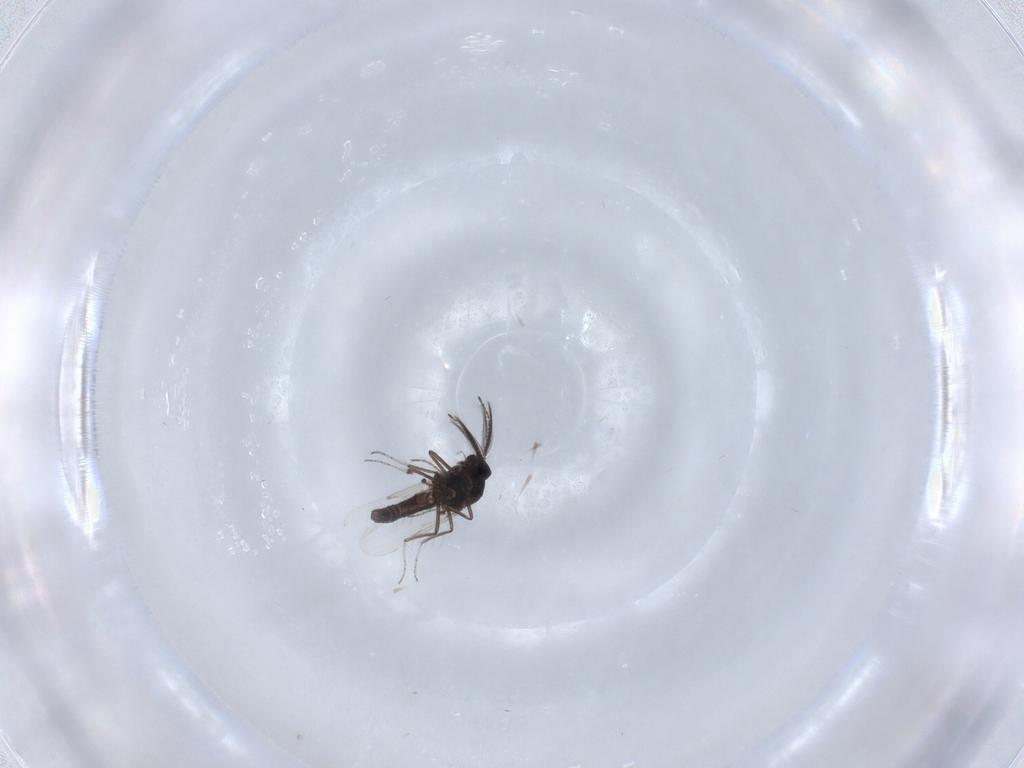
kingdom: Animalia
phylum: Arthropoda
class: Insecta
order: Diptera
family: Ceratopogonidae
